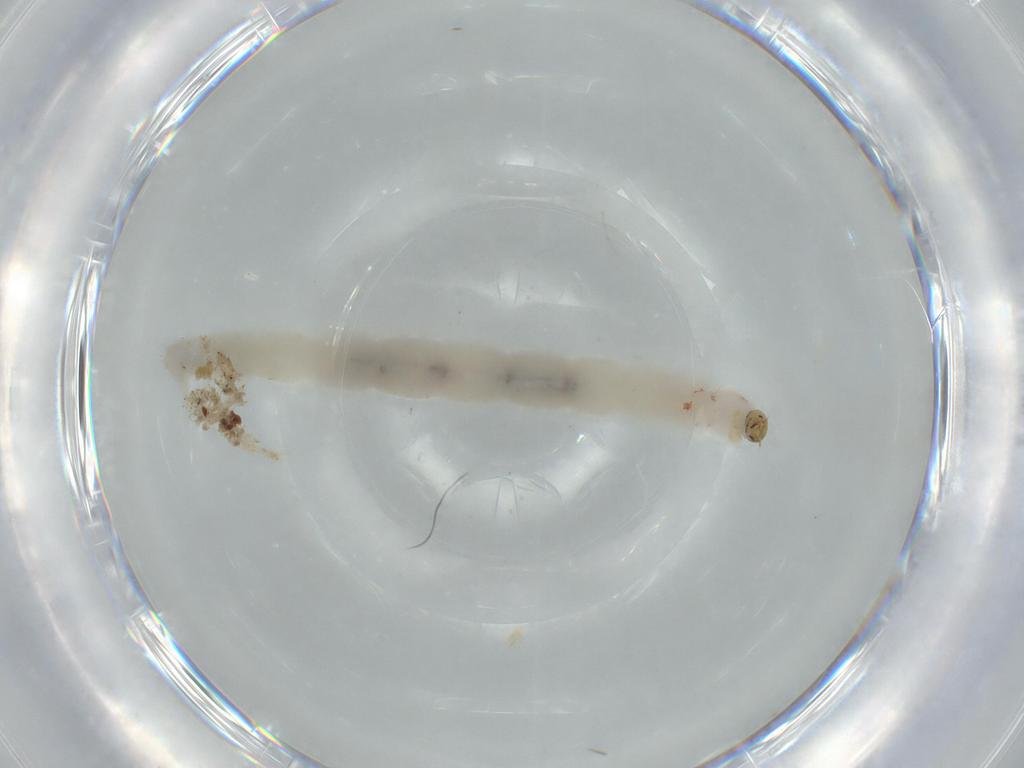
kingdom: Animalia
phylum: Arthropoda
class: Insecta
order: Diptera
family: Chironomidae
